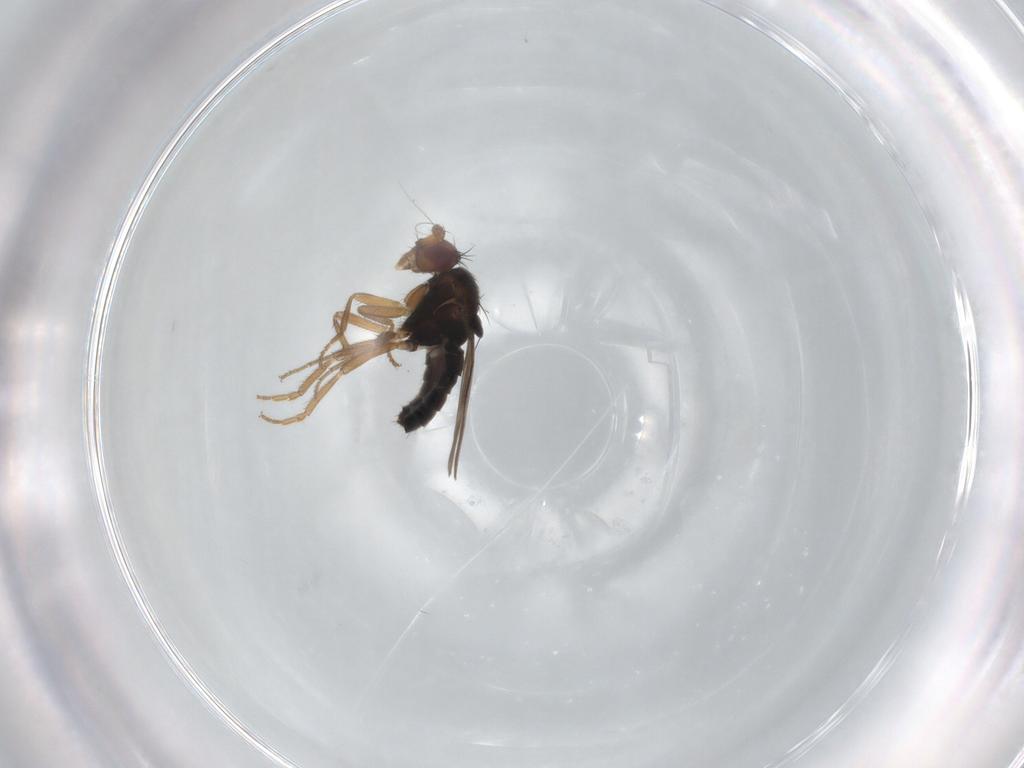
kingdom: Animalia
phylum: Arthropoda
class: Insecta
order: Diptera
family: Sphaeroceridae
